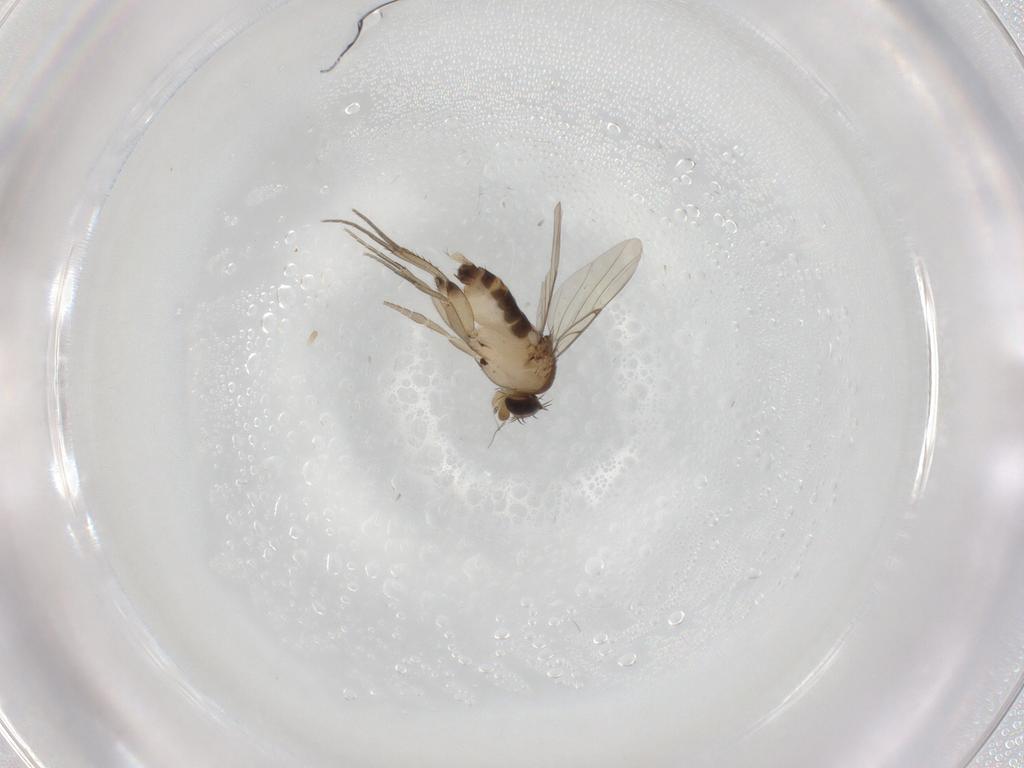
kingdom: Animalia
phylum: Arthropoda
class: Insecta
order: Diptera
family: Phoridae
